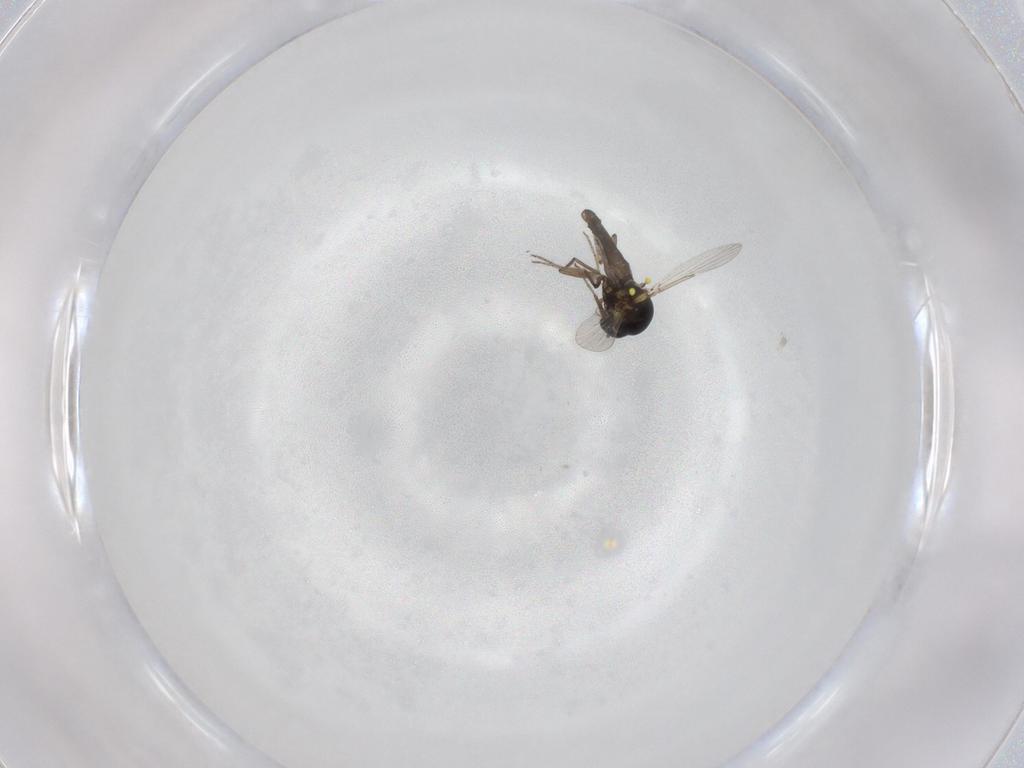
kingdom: Animalia
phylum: Arthropoda
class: Insecta
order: Diptera
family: Ceratopogonidae
